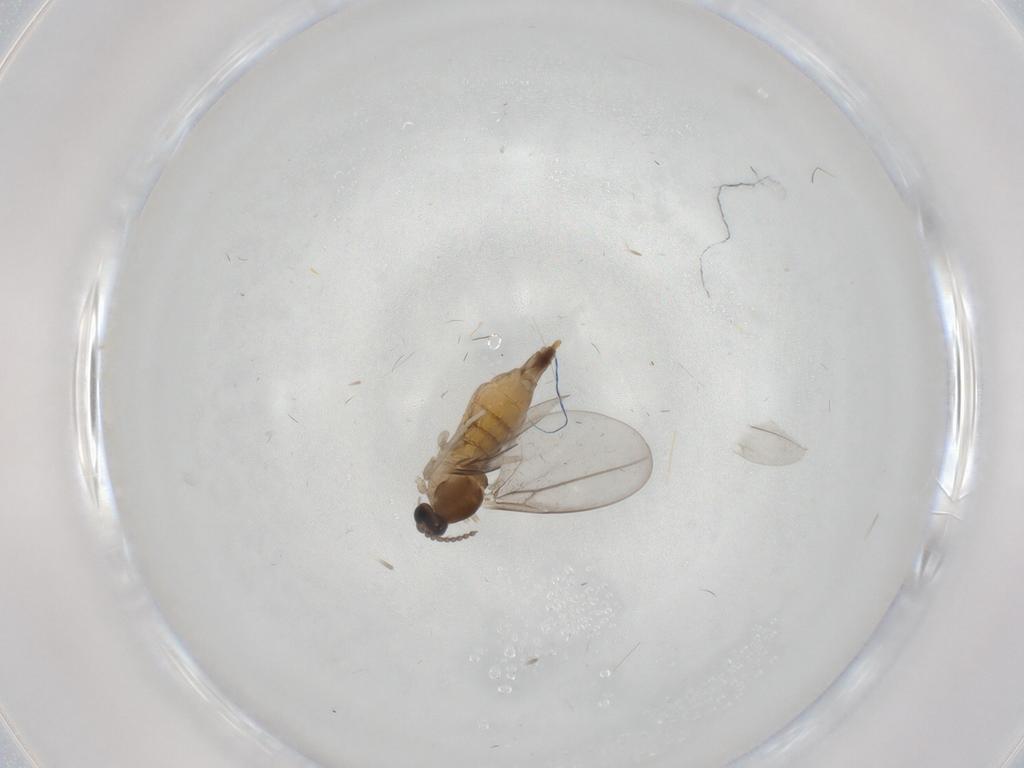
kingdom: Animalia
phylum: Arthropoda
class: Insecta
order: Diptera
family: Cecidomyiidae
